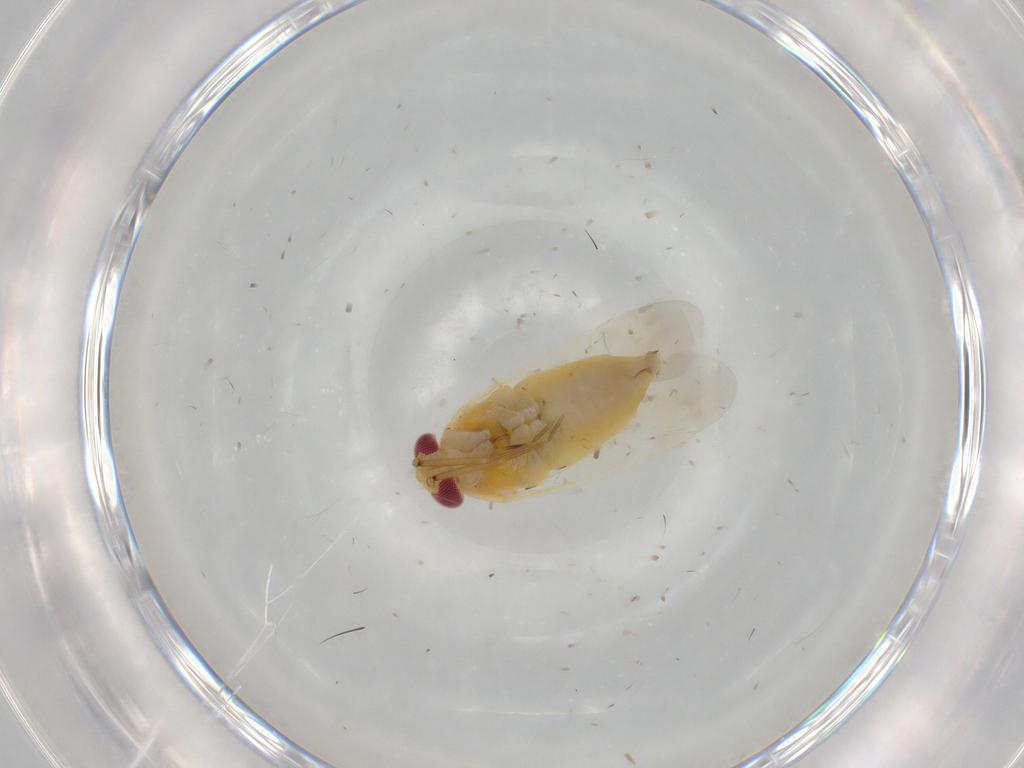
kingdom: Animalia
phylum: Arthropoda
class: Insecta
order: Hemiptera
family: Miridae
